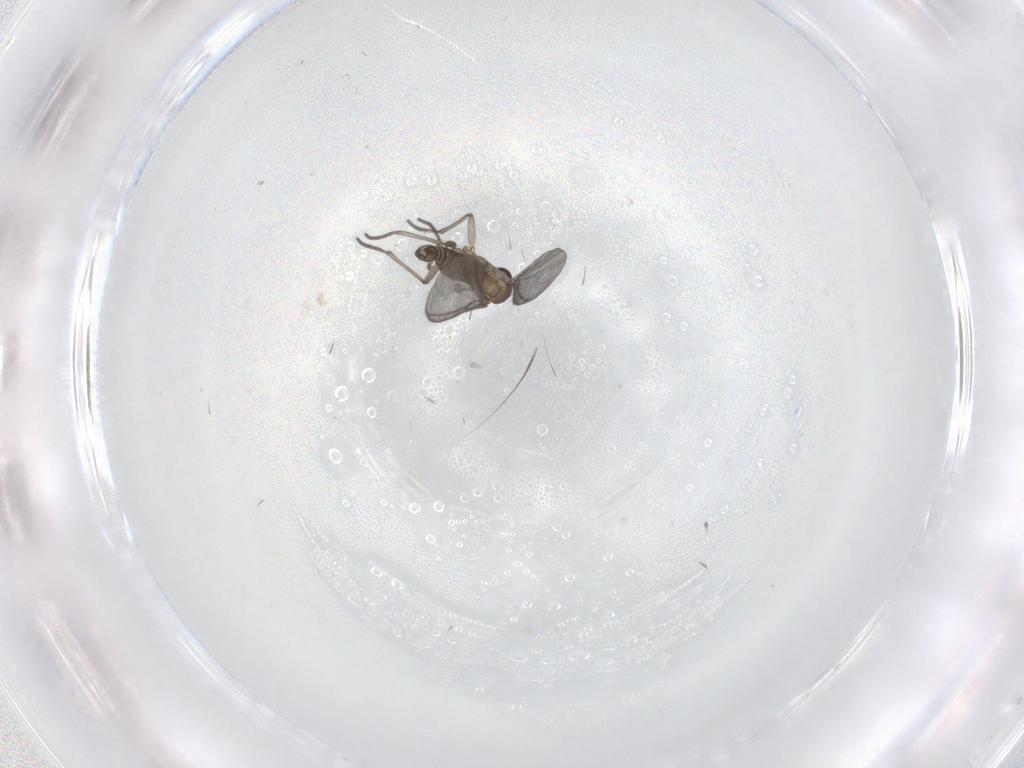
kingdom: Animalia
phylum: Arthropoda
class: Insecta
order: Diptera
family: Sciaridae
